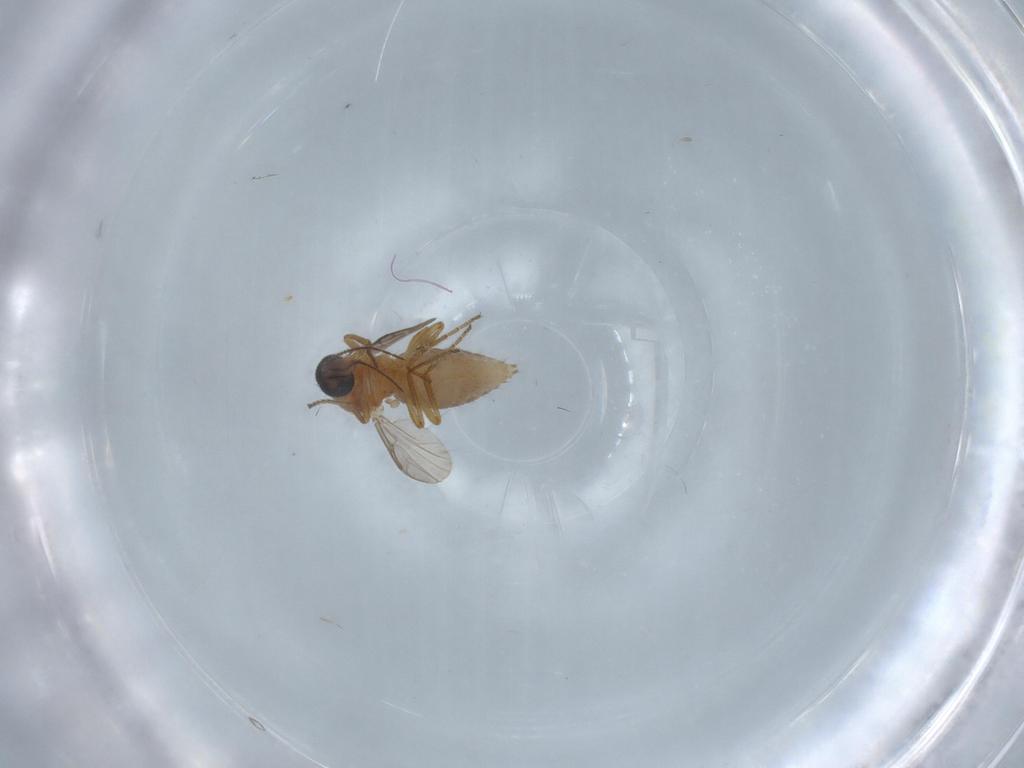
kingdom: Animalia
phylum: Arthropoda
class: Insecta
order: Diptera
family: Ceratopogonidae
